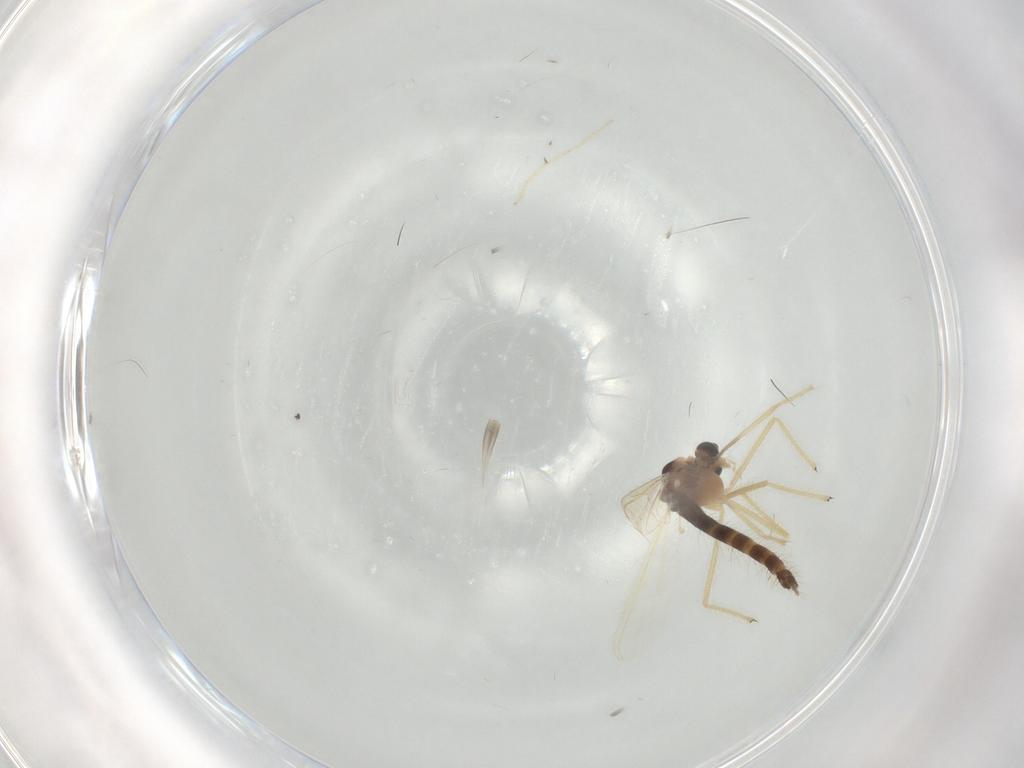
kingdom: Animalia
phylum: Arthropoda
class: Insecta
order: Diptera
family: Chironomidae
